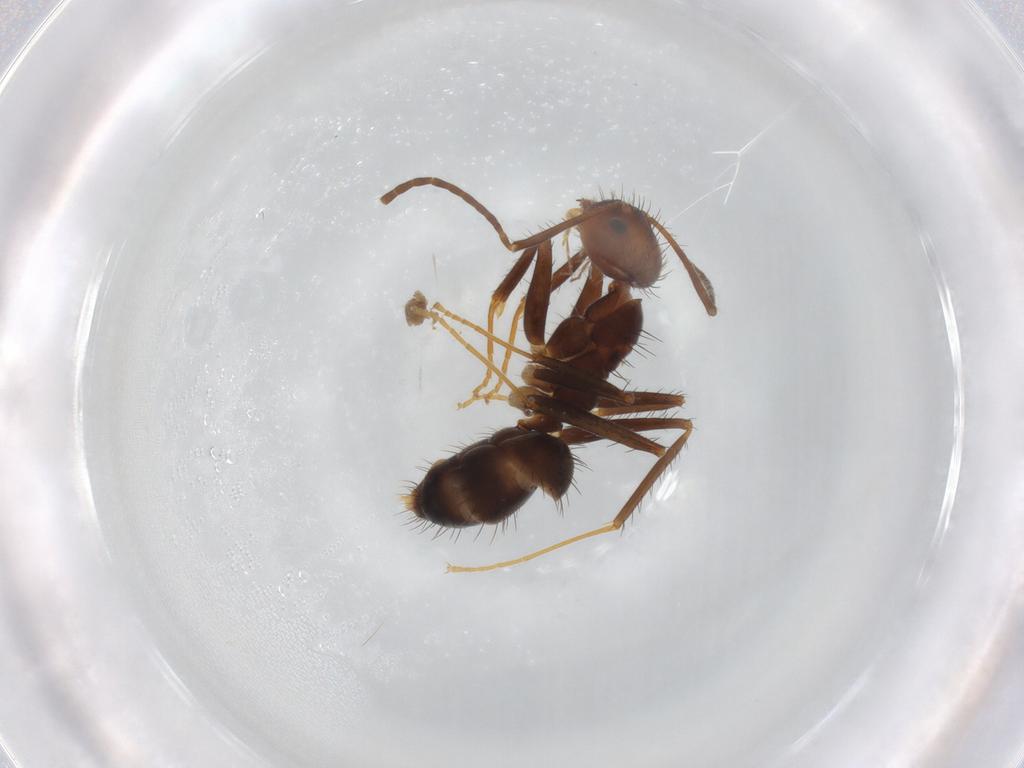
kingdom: Animalia
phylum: Arthropoda
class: Insecta
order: Hymenoptera
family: Formicidae
